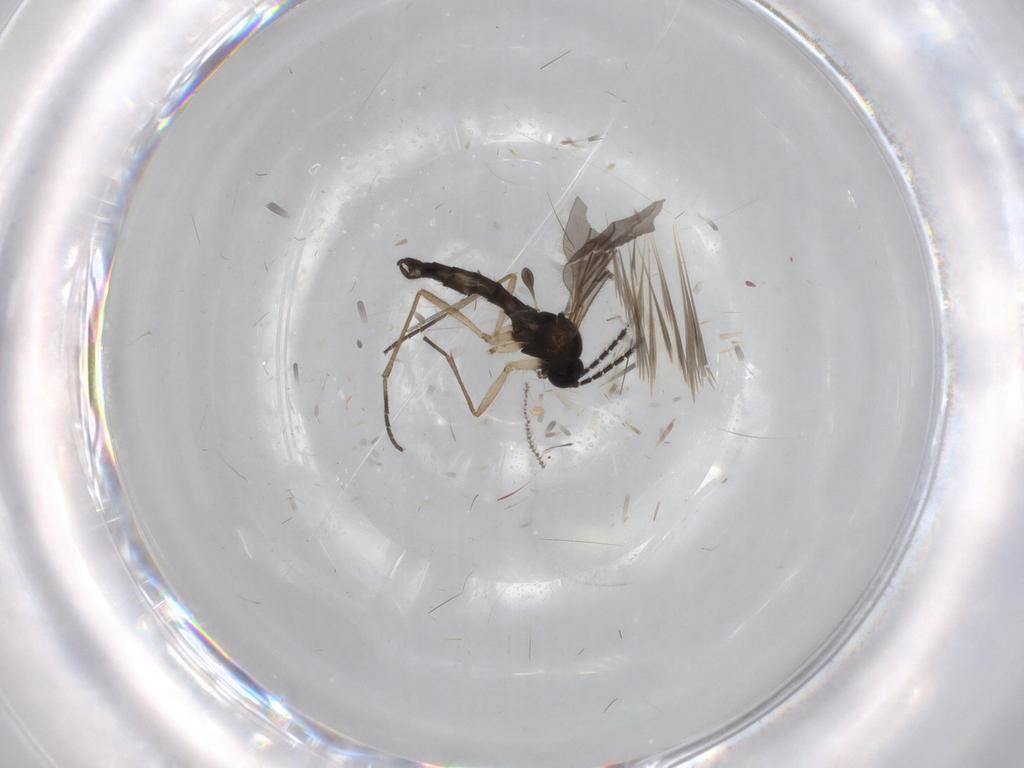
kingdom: Animalia
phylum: Arthropoda
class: Insecta
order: Diptera
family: Sciaridae
